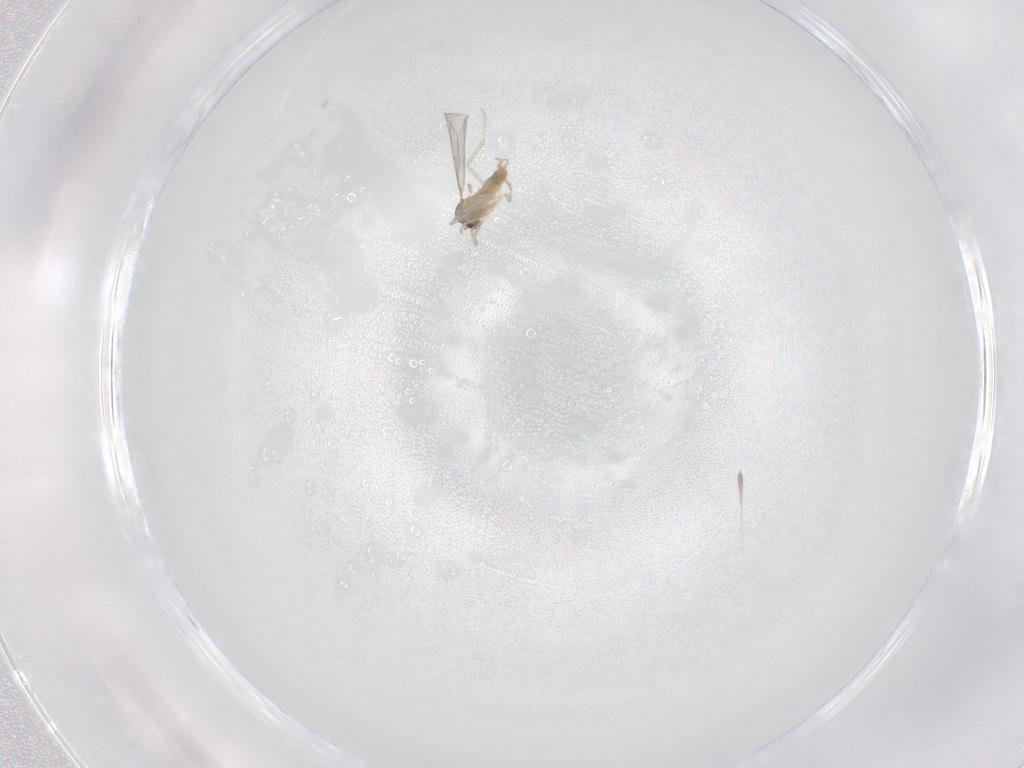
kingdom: Animalia
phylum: Arthropoda
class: Insecta
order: Diptera
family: Cecidomyiidae
